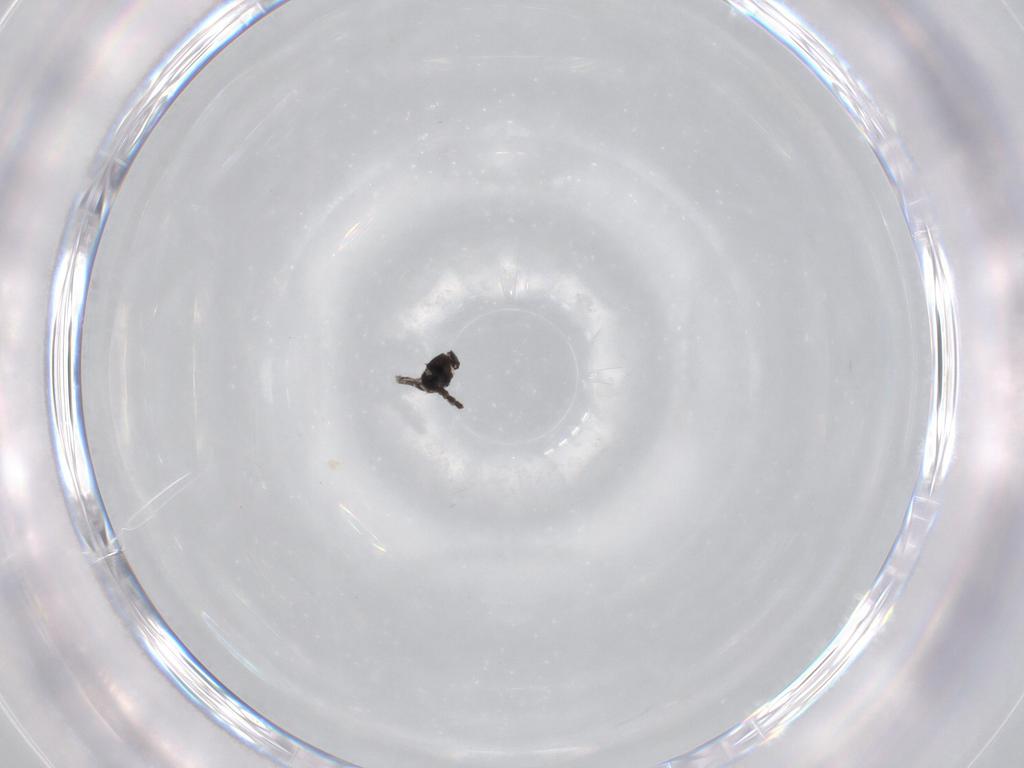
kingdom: Animalia
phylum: Arthropoda
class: Insecta
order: Diptera
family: Sciaridae
